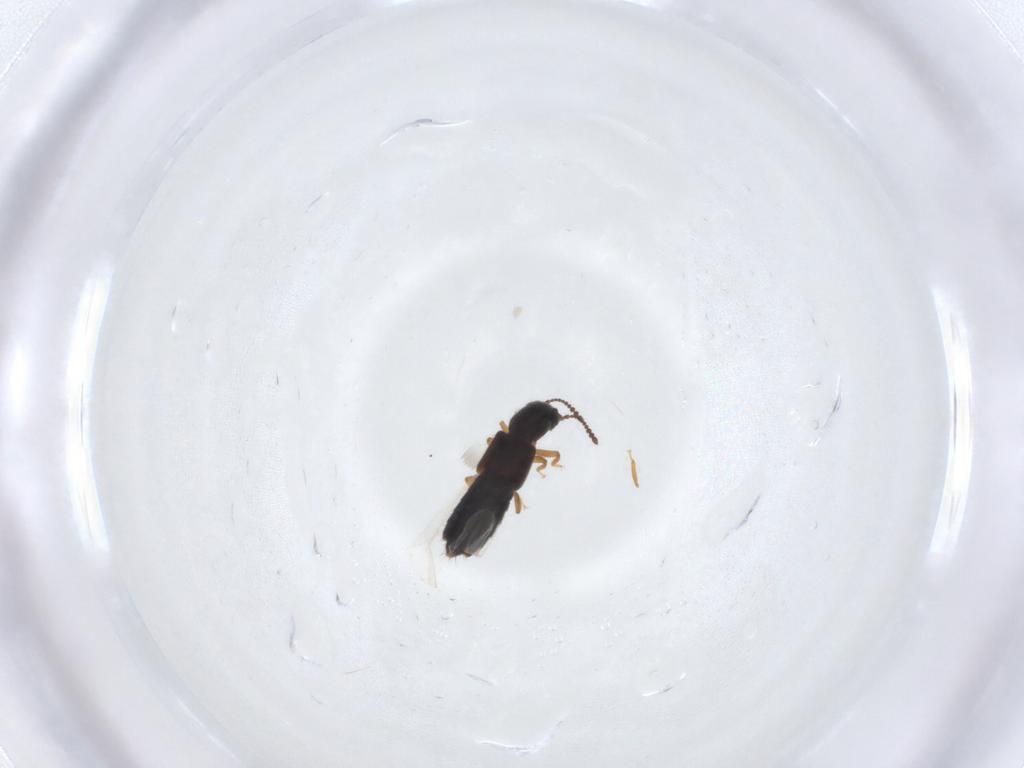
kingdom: Animalia
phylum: Arthropoda
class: Insecta
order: Coleoptera
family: Staphylinidae
